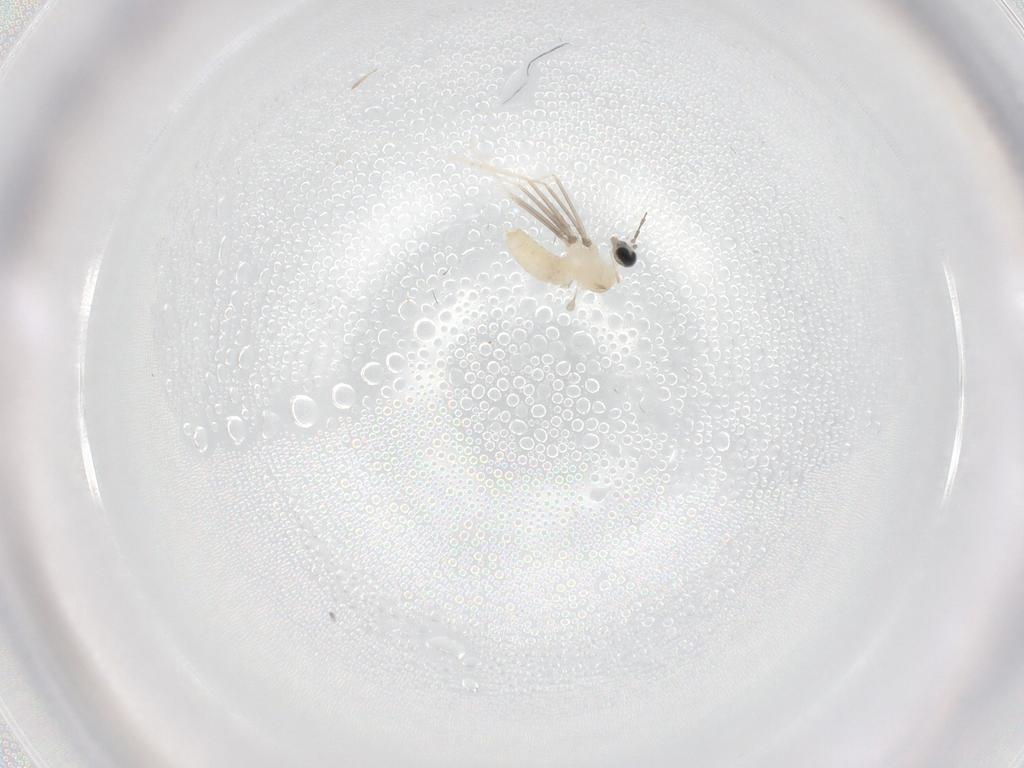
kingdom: Animalia
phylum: Arthropoda
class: Insecta
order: Diptera
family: Cecidomyiidae
